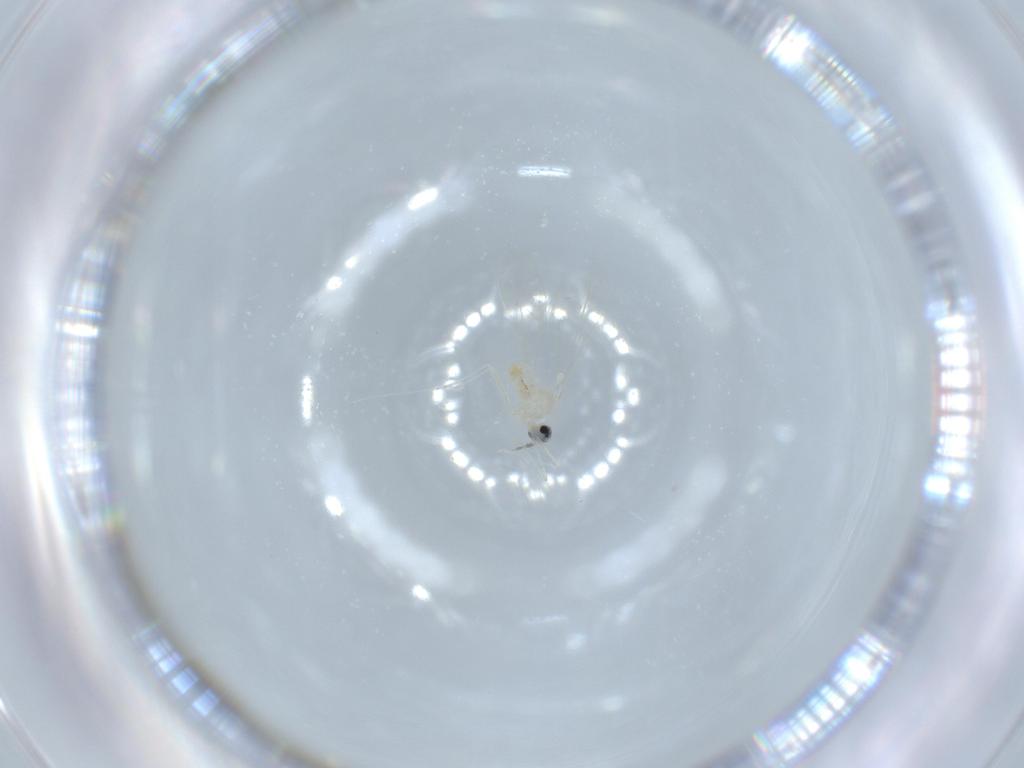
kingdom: Animalia
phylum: Arthropoda
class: Insecta
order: Diptera
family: Cecidomyiidae
